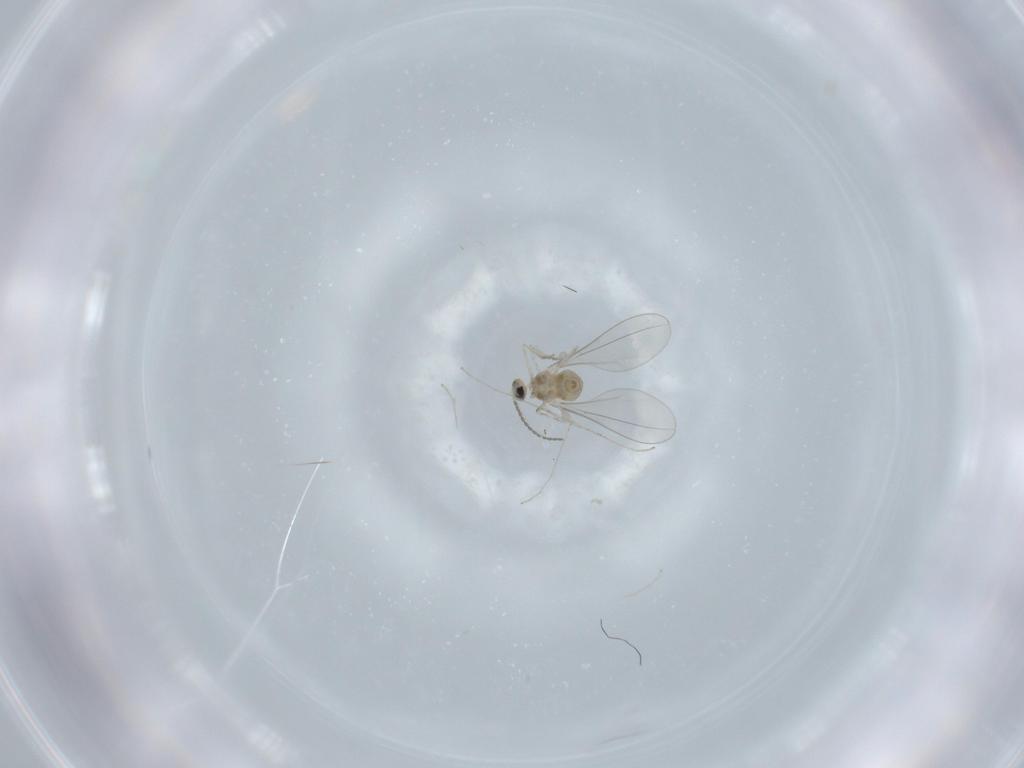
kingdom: Animalia
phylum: Arthropoda
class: Insecta
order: Diptera
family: Cecidomyiidae
